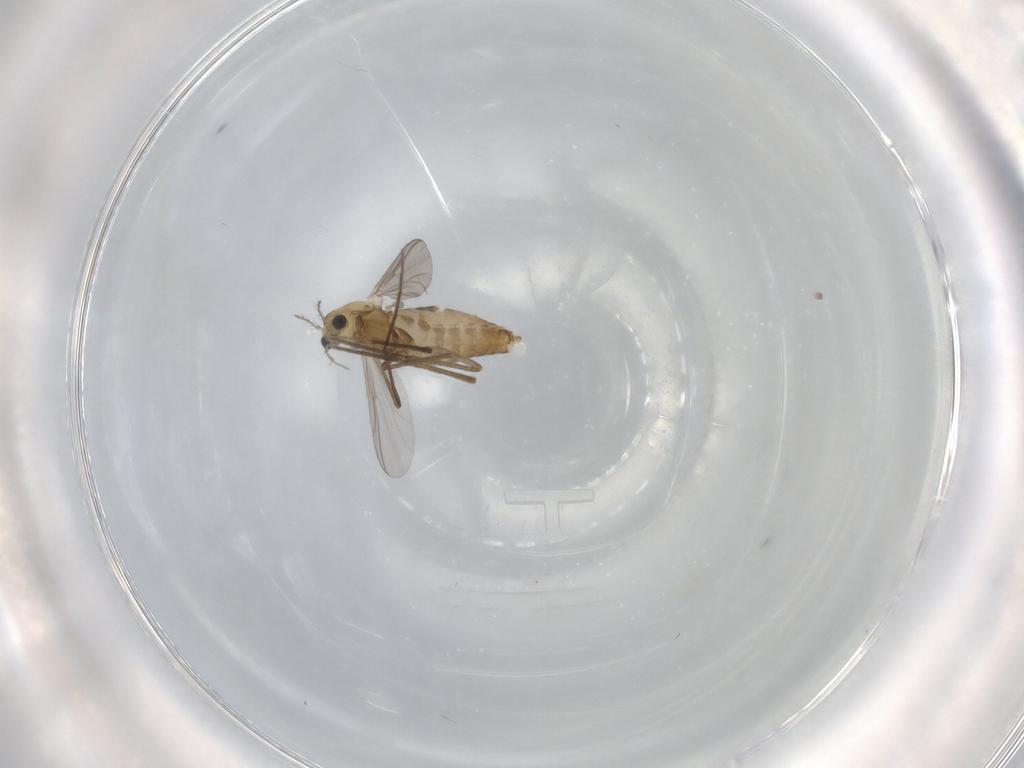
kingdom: Animalia
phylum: Arthropoda
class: Insecta
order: Diptera
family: Chironomidae
